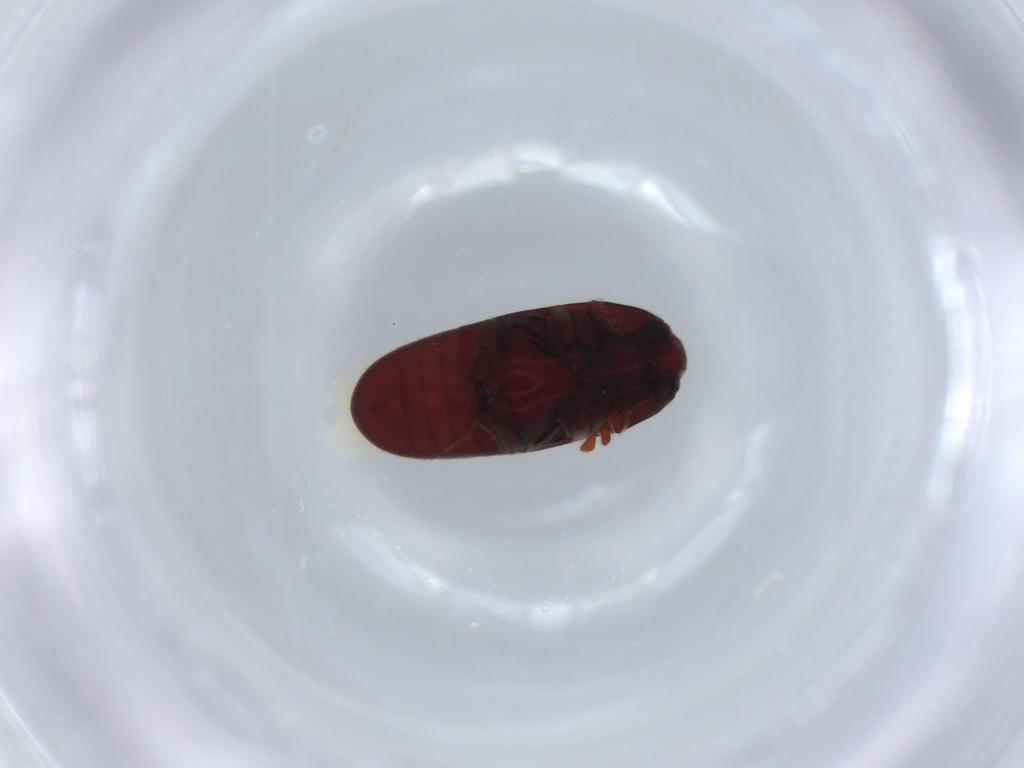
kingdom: Animalia
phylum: Arthropoda
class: Insecta
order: Coleoptera
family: Throscidae
